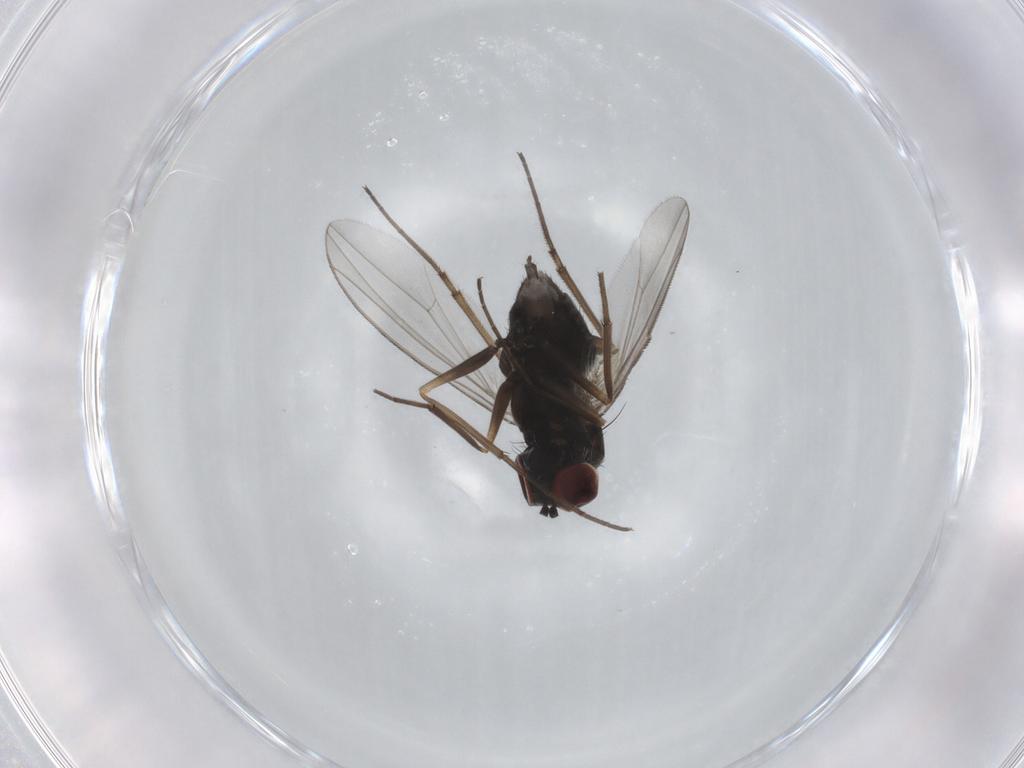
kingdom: Animalia
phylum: Arthropoda
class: Insecta
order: Diptera
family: Dolichopodidae
